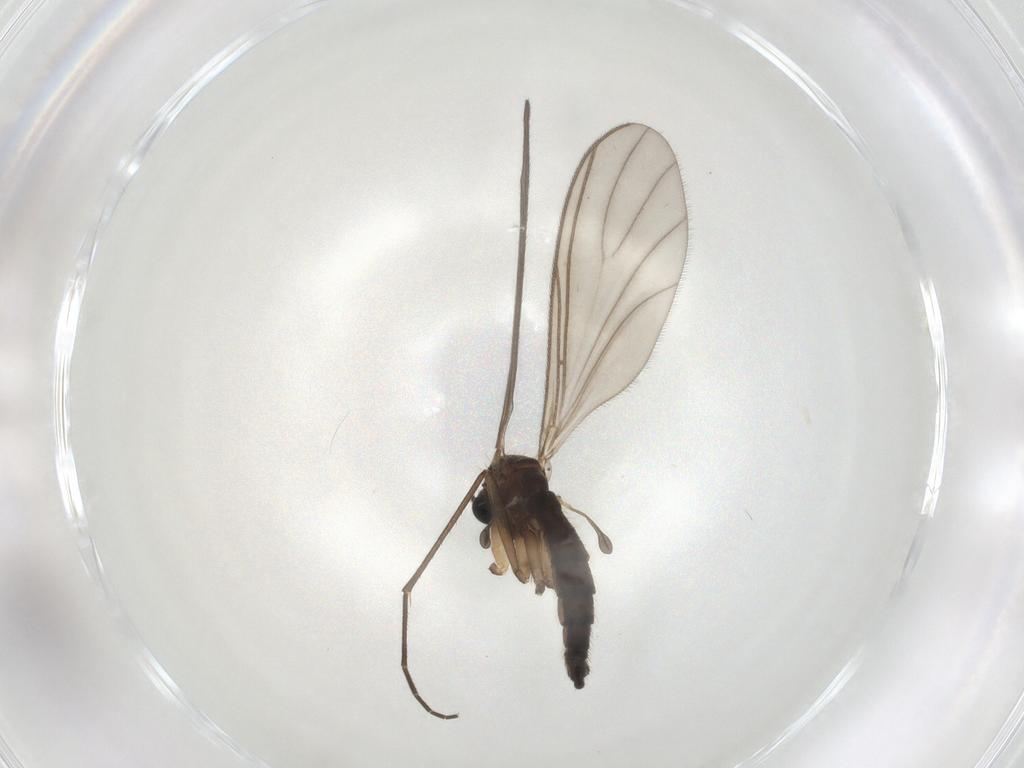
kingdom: Animalia
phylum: Arthropoda
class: Insecta
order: Diptera
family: Sciaridae
